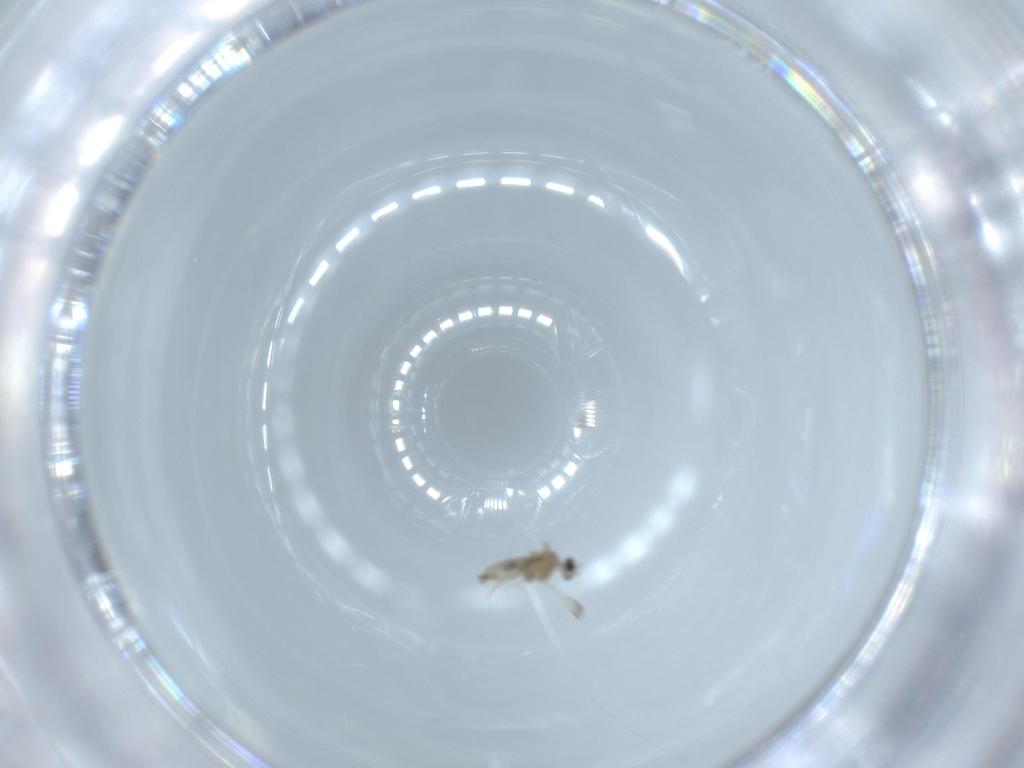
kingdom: Animalia
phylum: Arthropoda
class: Insecta
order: Diptera
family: Cecidomyiidae
